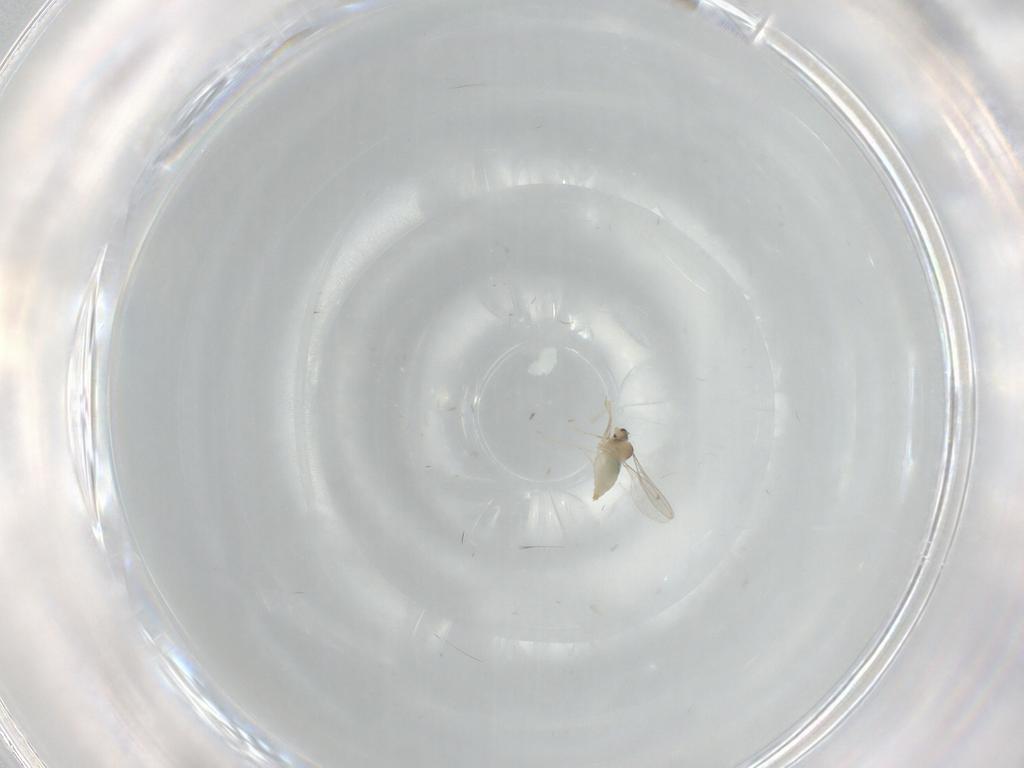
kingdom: Animalia
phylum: Arthropoda
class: Insecta
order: Diptera
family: Cecidomyiidae
